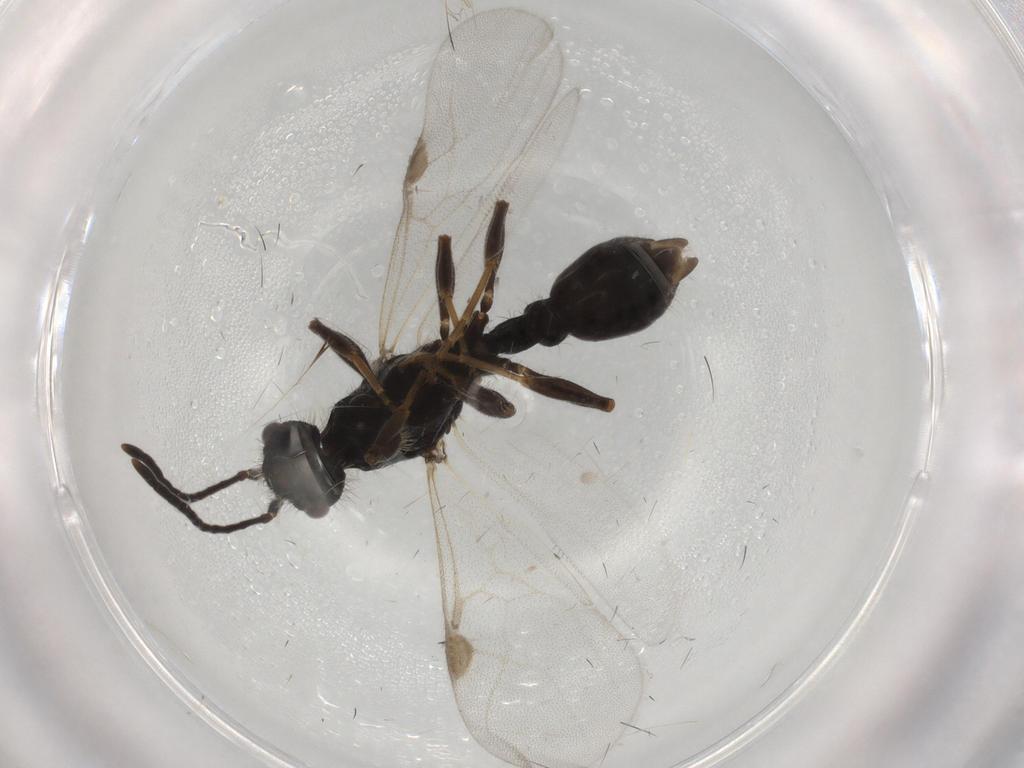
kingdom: Animalia
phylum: Arthropoda
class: Insecta
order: Hymenoptera
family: Formicidae
